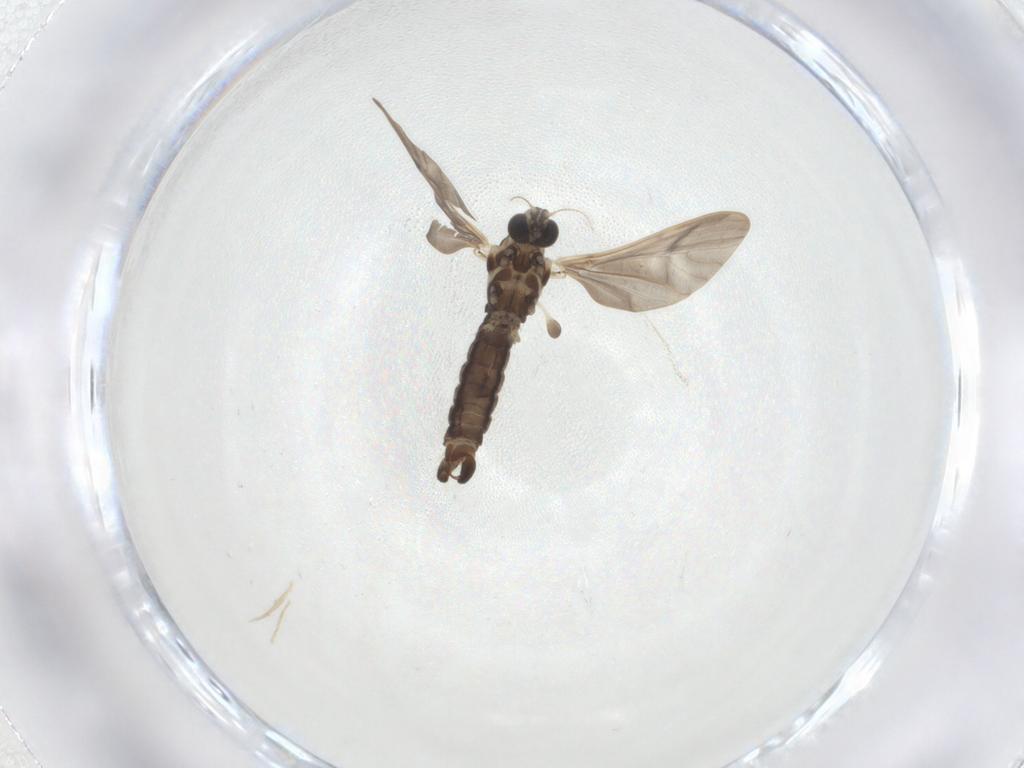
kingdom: Animalia
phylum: Arthropoda
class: Insecta
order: Diptera
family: Limoniidae
